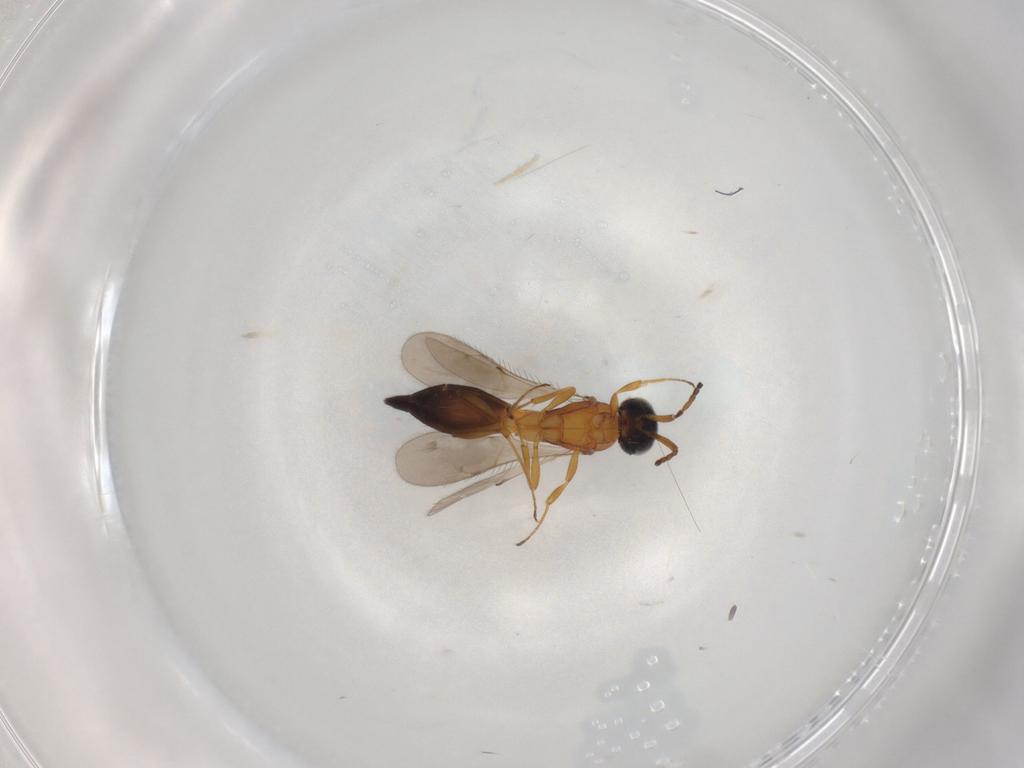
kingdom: Animalia
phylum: Arthropoda
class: Insecta
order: Hymenoptera
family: Scelionidae
